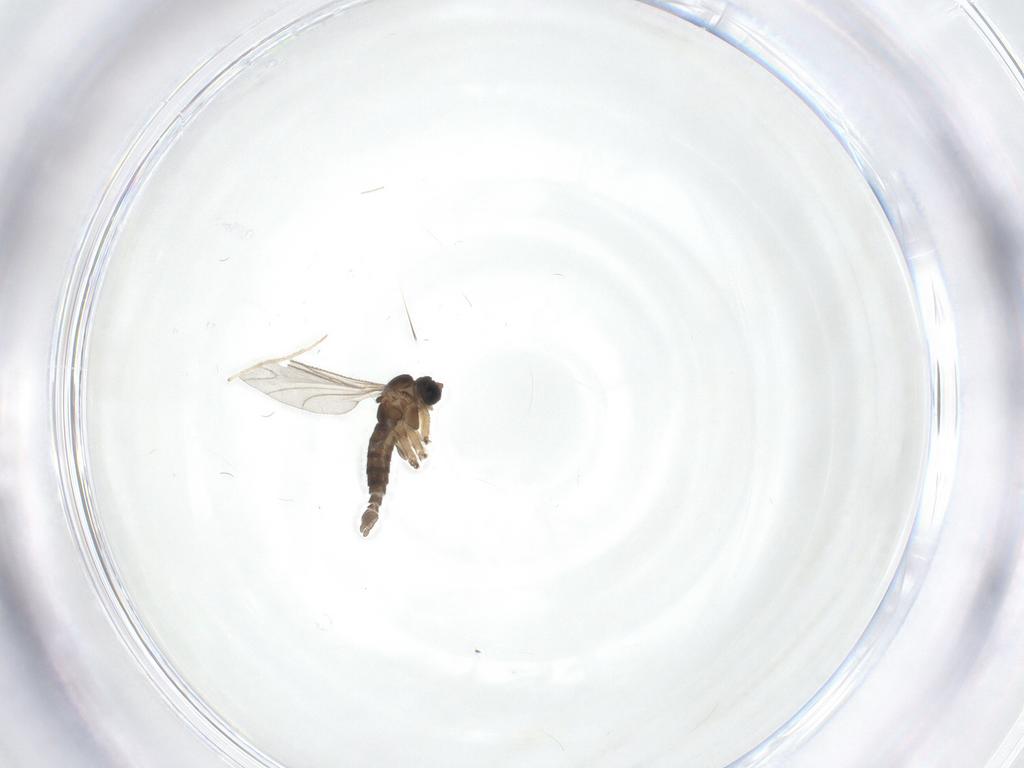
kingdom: Animalia
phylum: Arthropoda
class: Insecta
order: Diptera
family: Sciaridae
